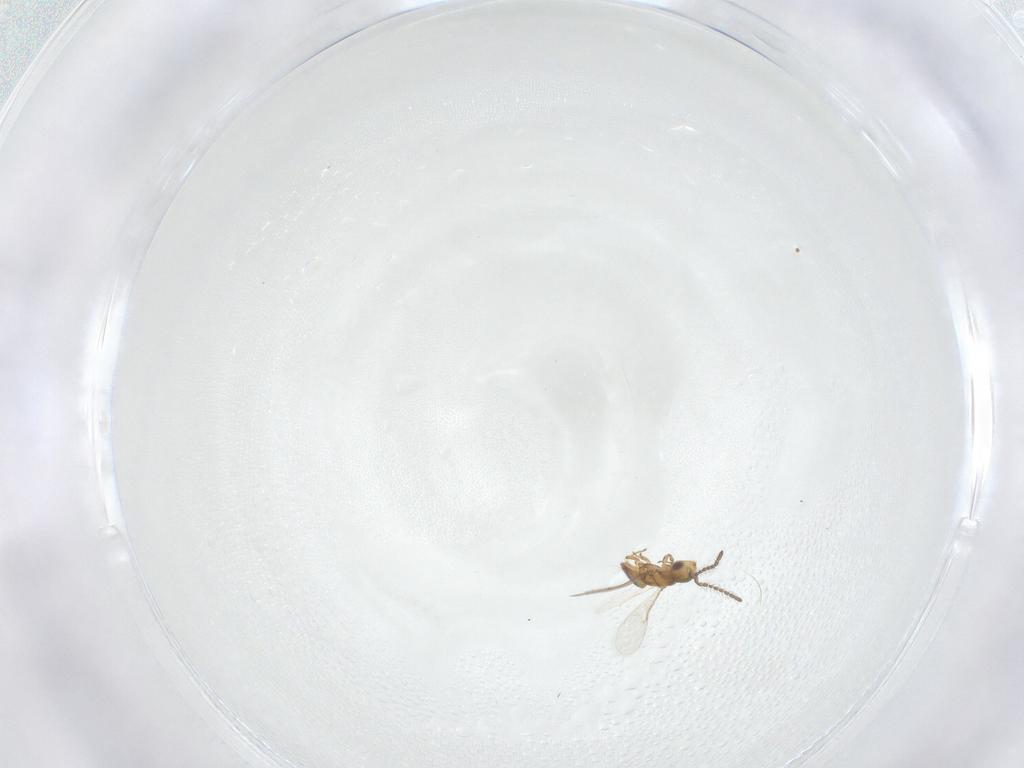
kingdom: Animalia
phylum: Arthropoda
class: Insecta
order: Hymenoptera
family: Encyrtidae
